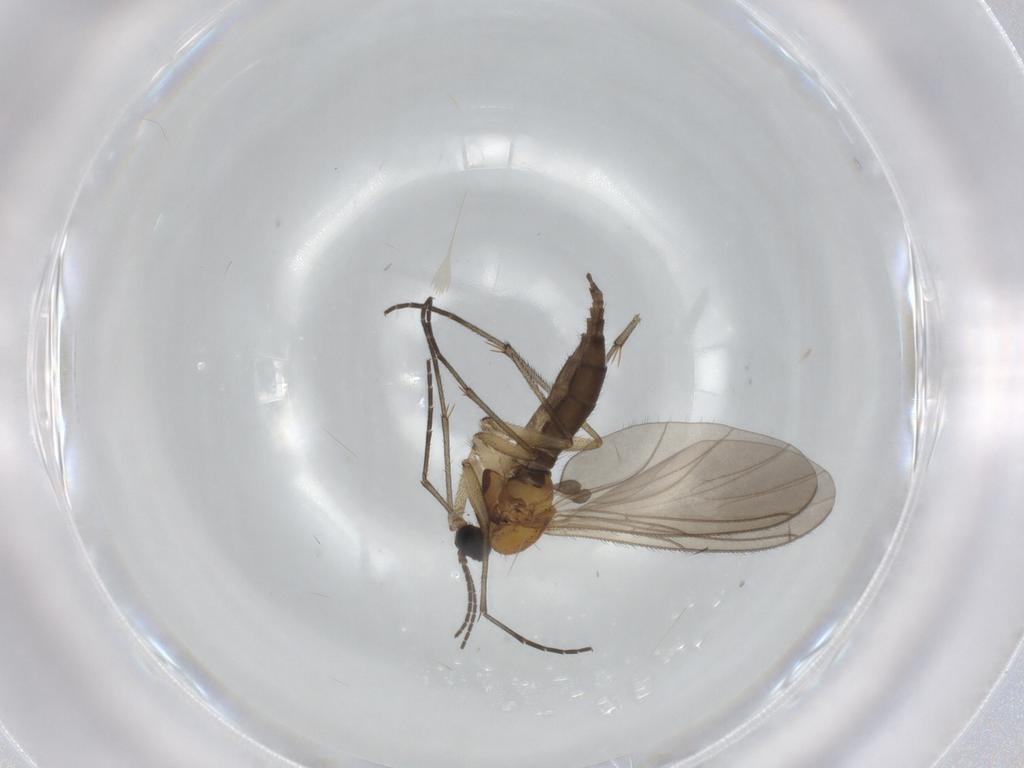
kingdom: Animalia
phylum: Arthropoda
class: Insecta
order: Diptera
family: Sciaridae
